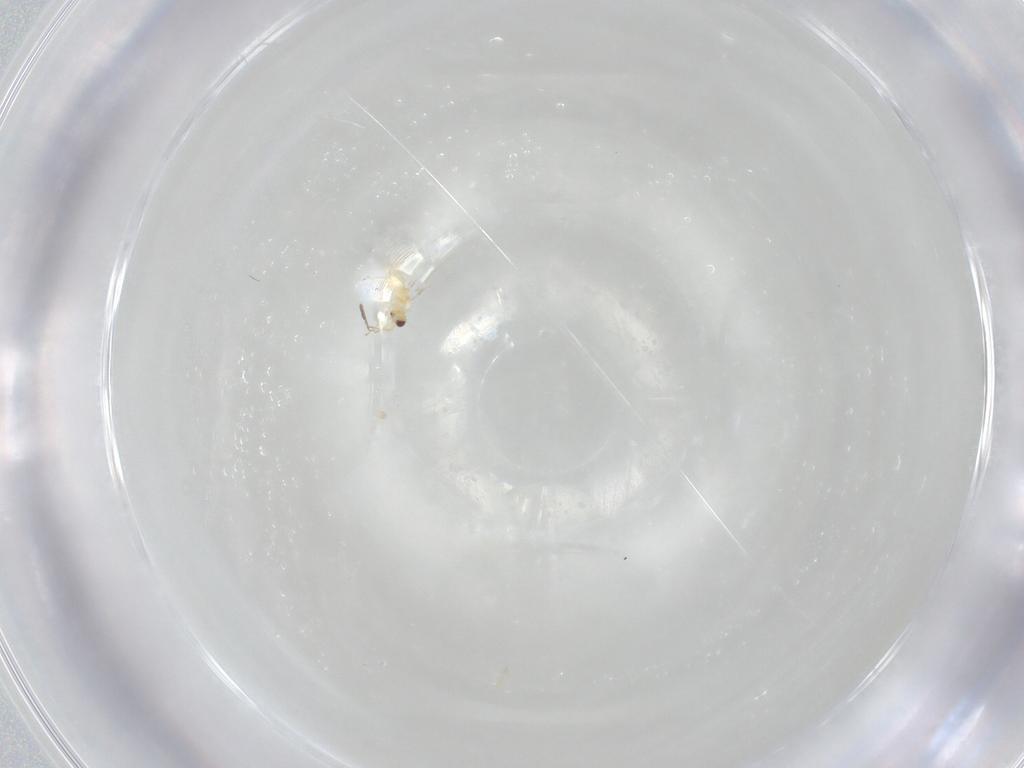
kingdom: Animalia
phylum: Arthropoda
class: Insecta
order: Hymenoptera
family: Mymaridae
